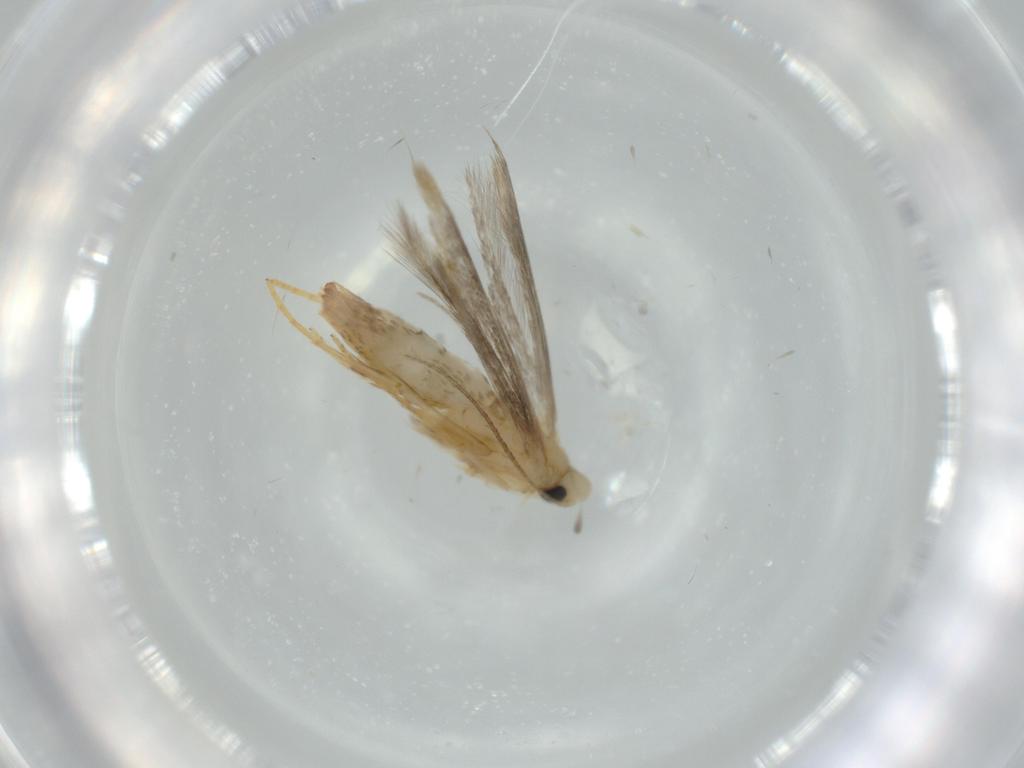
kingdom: Animalia
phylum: Arthropoda
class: Insecta
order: Lepidoptera
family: Tischeriidae
